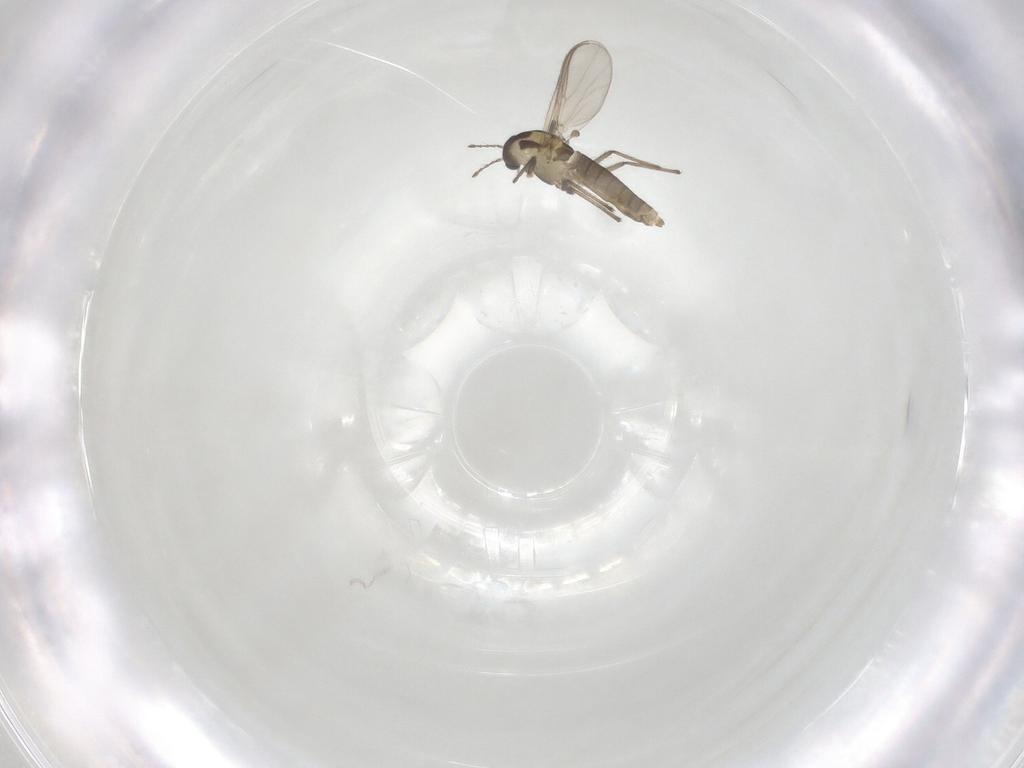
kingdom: Animalia
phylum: Arthropoda
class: Insecta
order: Diptera
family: Chironomidae
